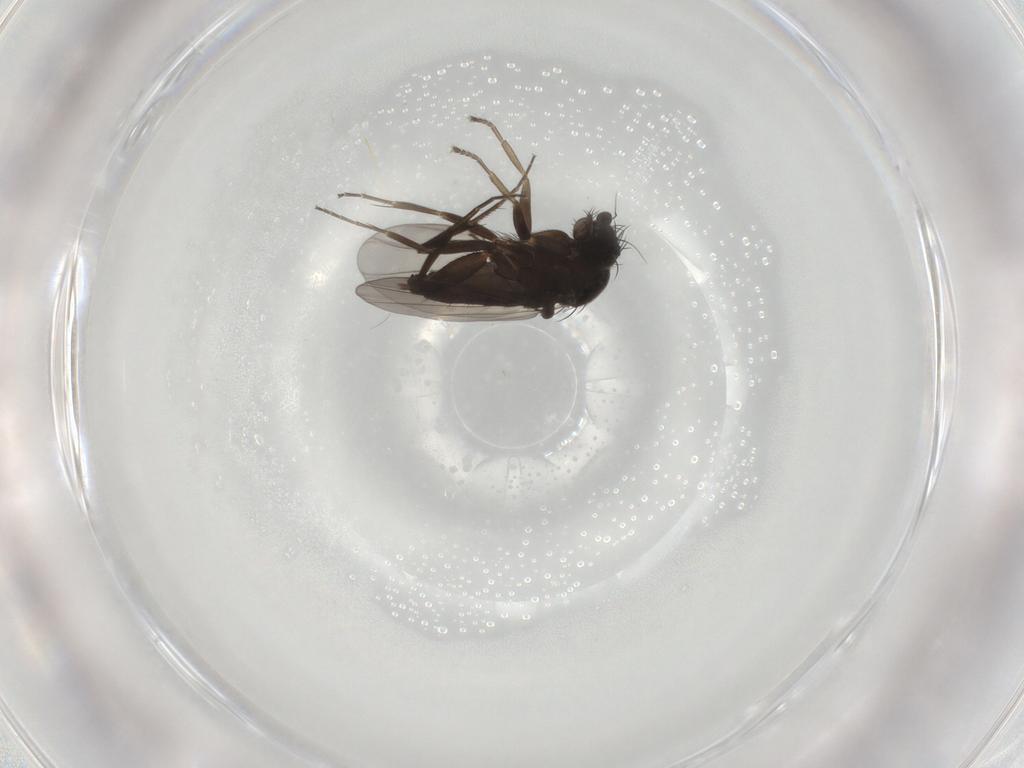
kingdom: Animalia
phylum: Arthropoda
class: Insecta
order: Diptera
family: Phoridae
